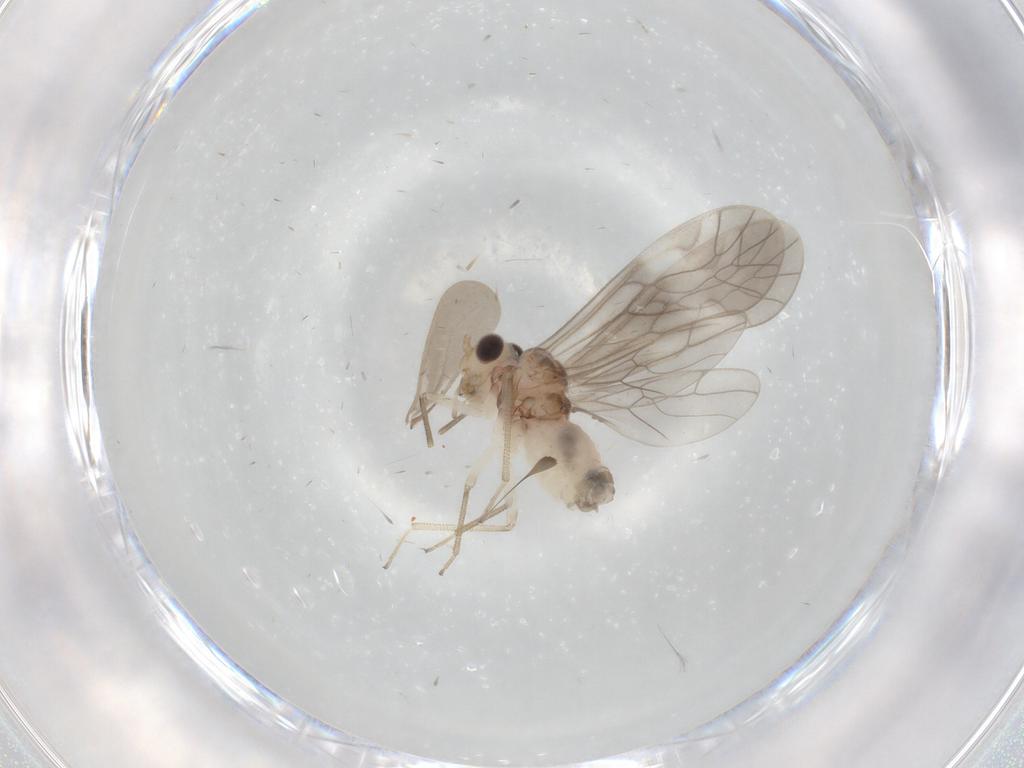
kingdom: Animalia
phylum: Arthropoda
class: Insecta
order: Psocodea
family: Caeciliusidae
